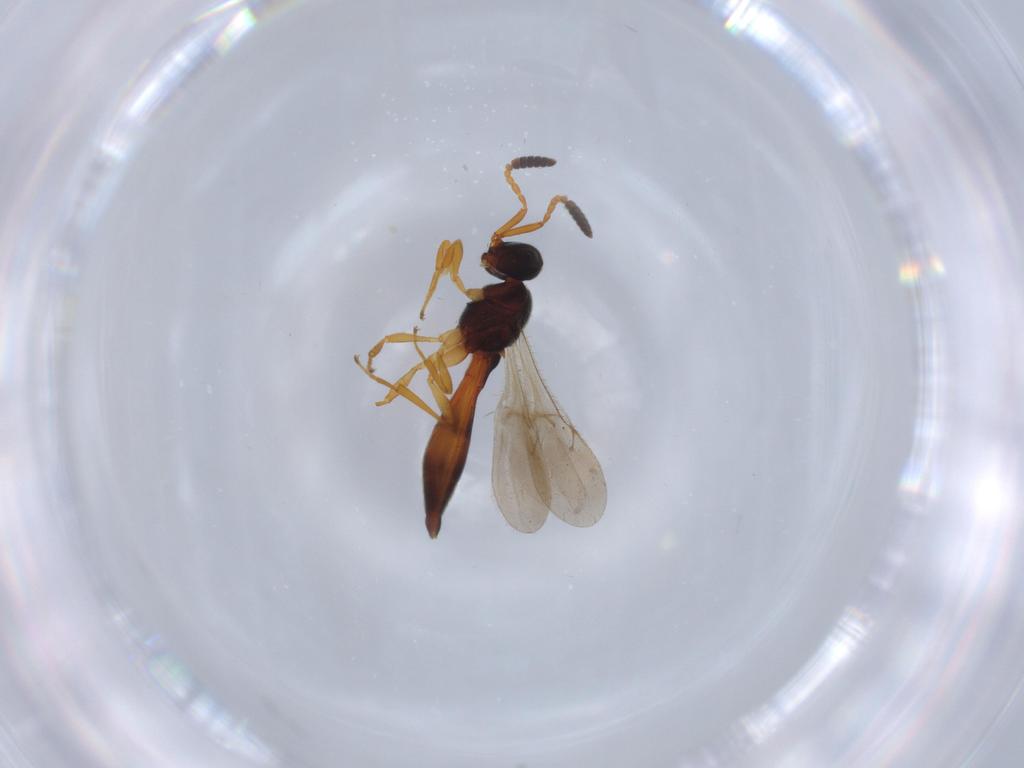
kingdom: Animalia
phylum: Arthropoda
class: Insecta
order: Hymenoptera
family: Scelionidae
